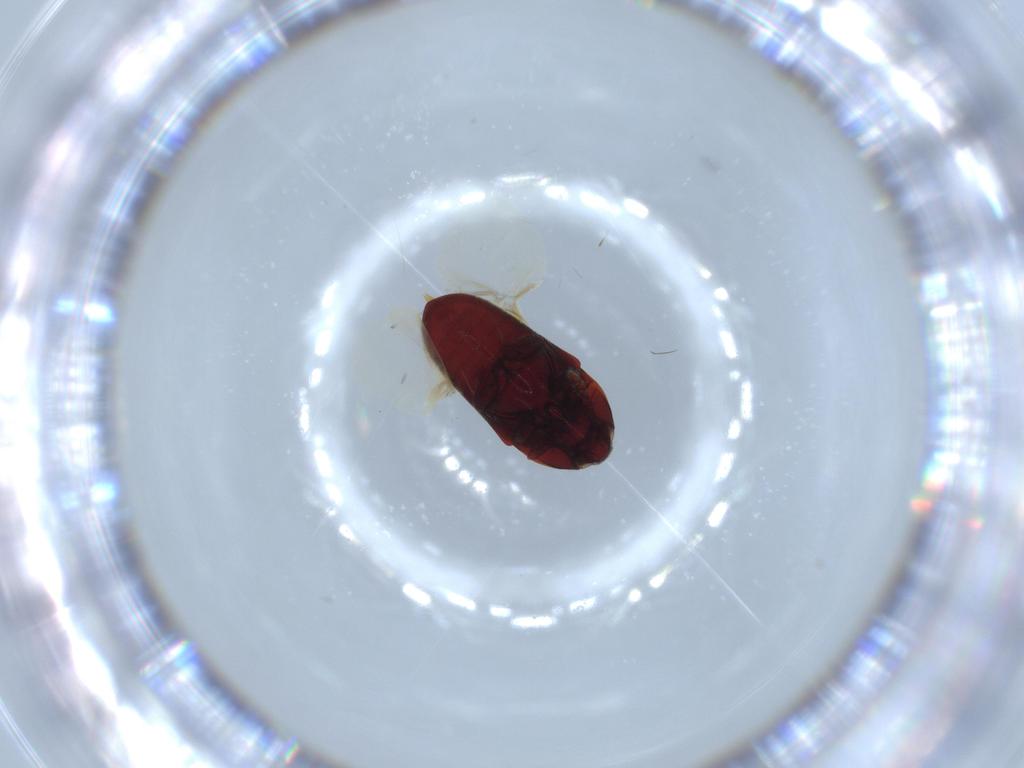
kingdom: Animalia
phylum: Arthropoda
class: Insecta
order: Coleoptera
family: Throscidae
